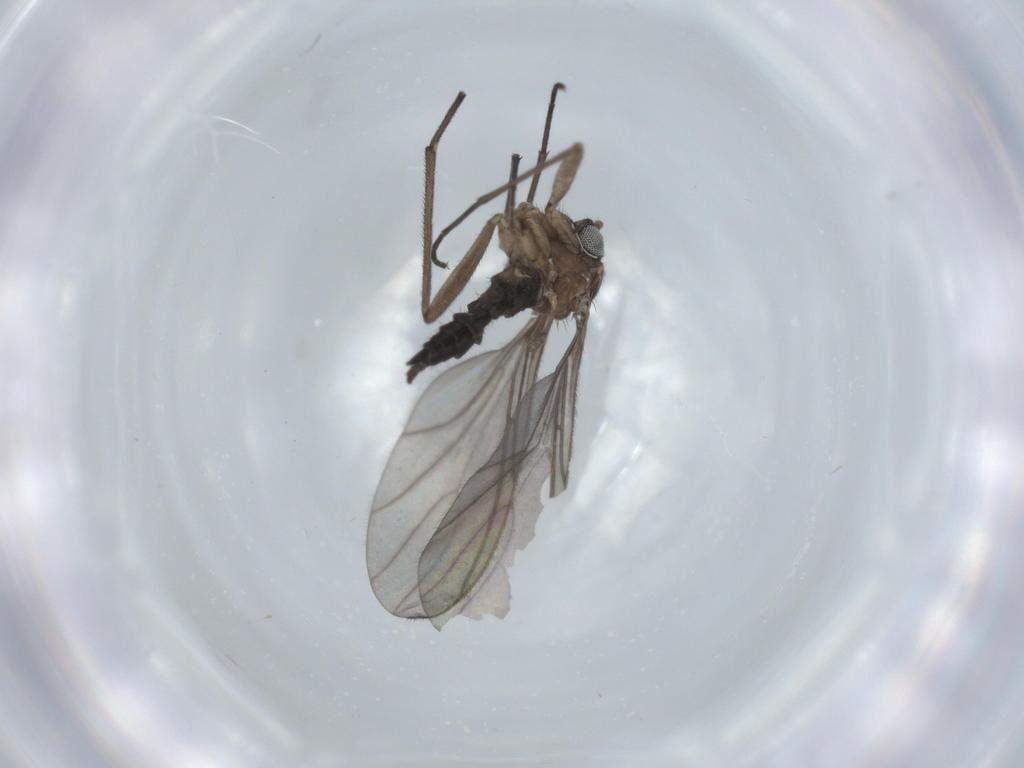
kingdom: Animalia
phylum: Arthropoda
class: Insecta
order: Diptera
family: Sciaridae
